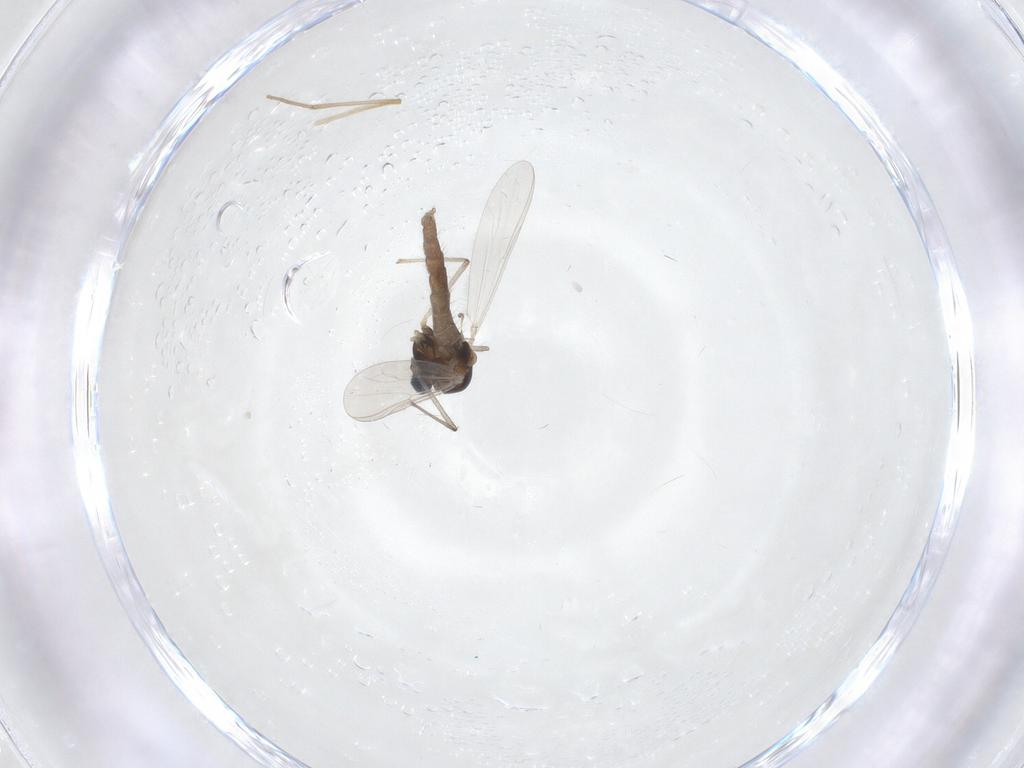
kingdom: Animalia
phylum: Arthropoda
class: Insecta
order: Diptera
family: Chironomidae
